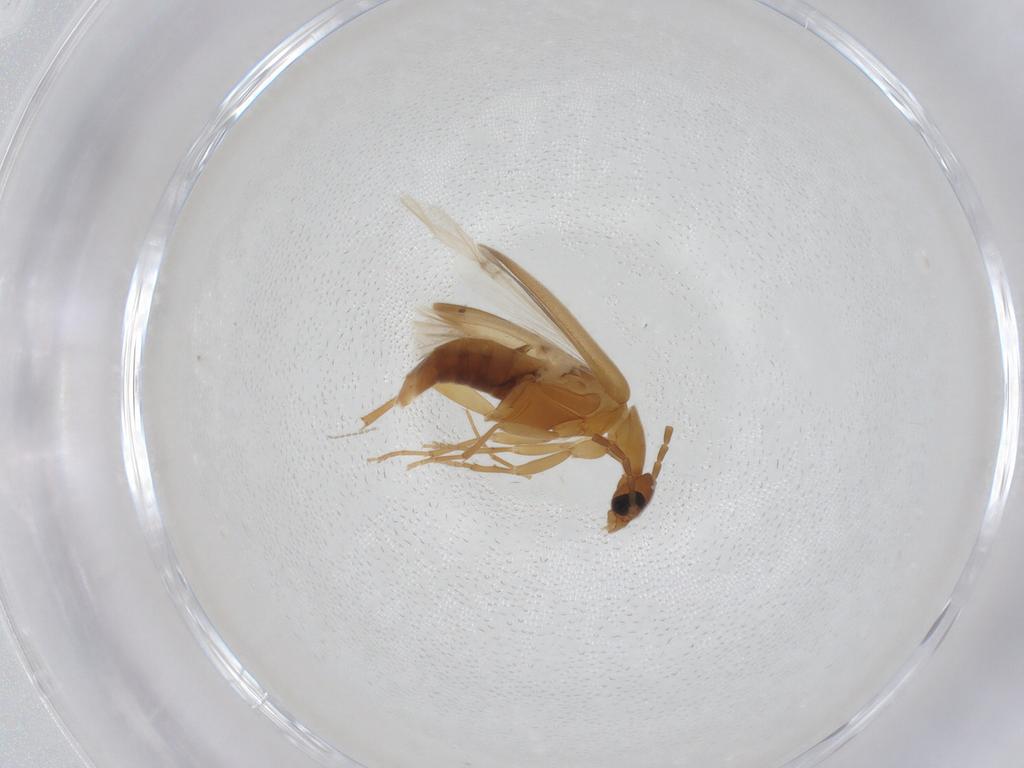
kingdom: Animalia
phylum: Arthropoda
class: Insecta
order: Coleoptera
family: Scraptiidae
